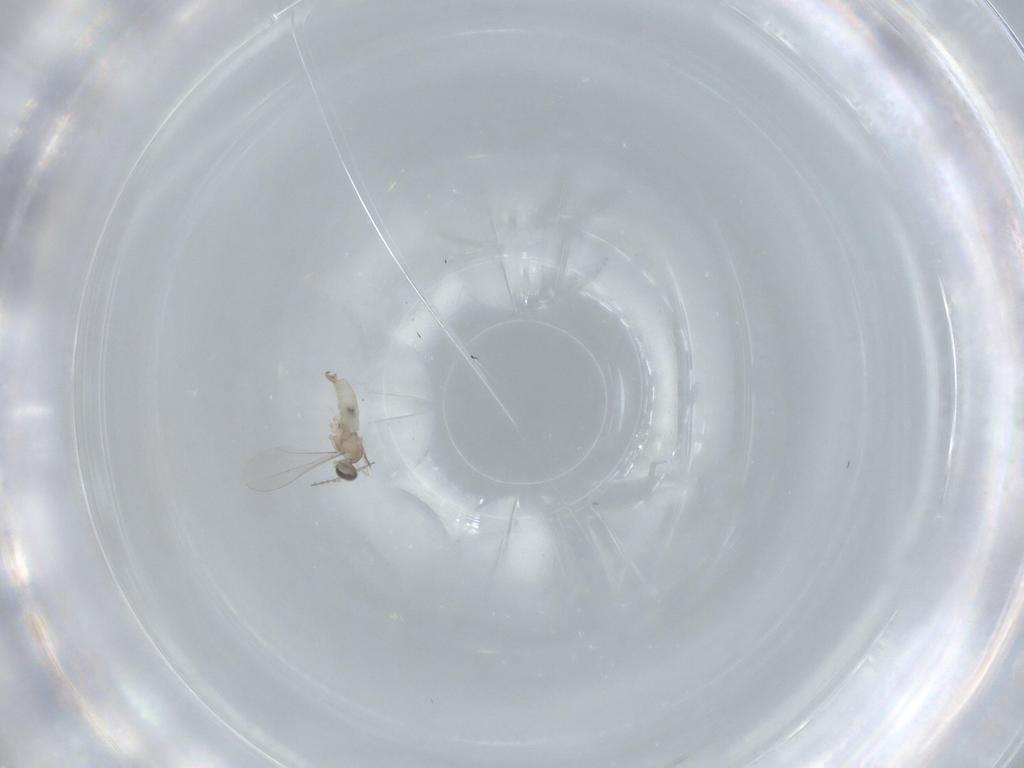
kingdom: Animalia
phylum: Arthropoda
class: Insecta
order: Diptera
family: Cecidomyiidae
